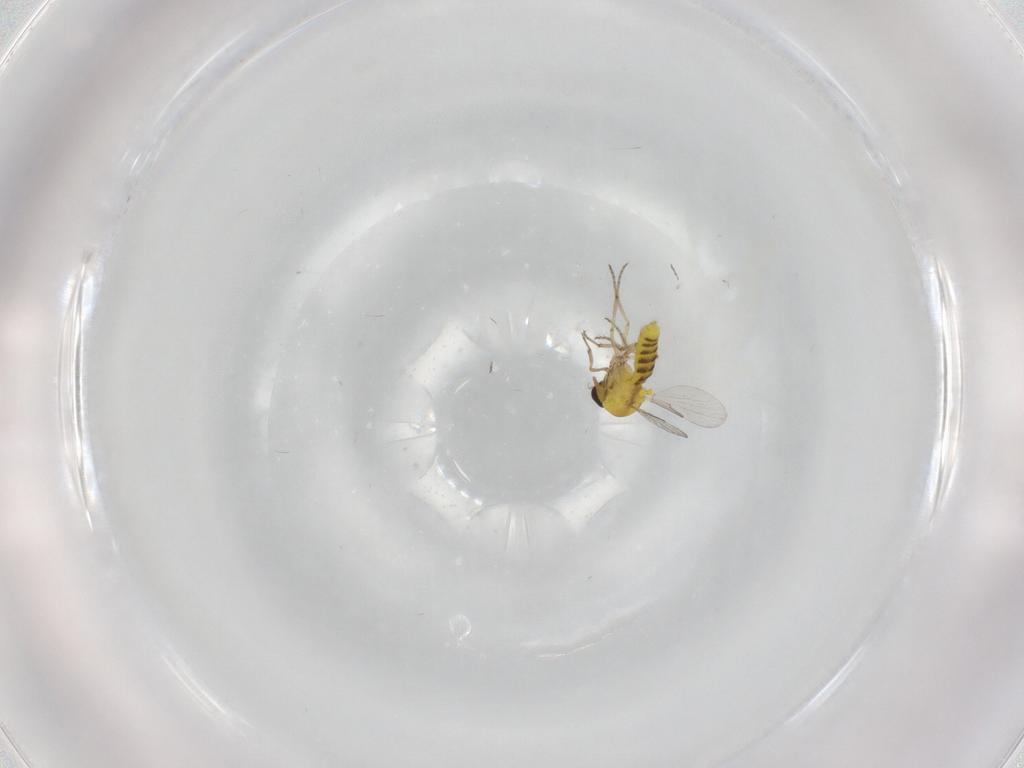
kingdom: Animalia
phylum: Arthropoda
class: Insecta
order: Diptera
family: Ceratopogonidae
